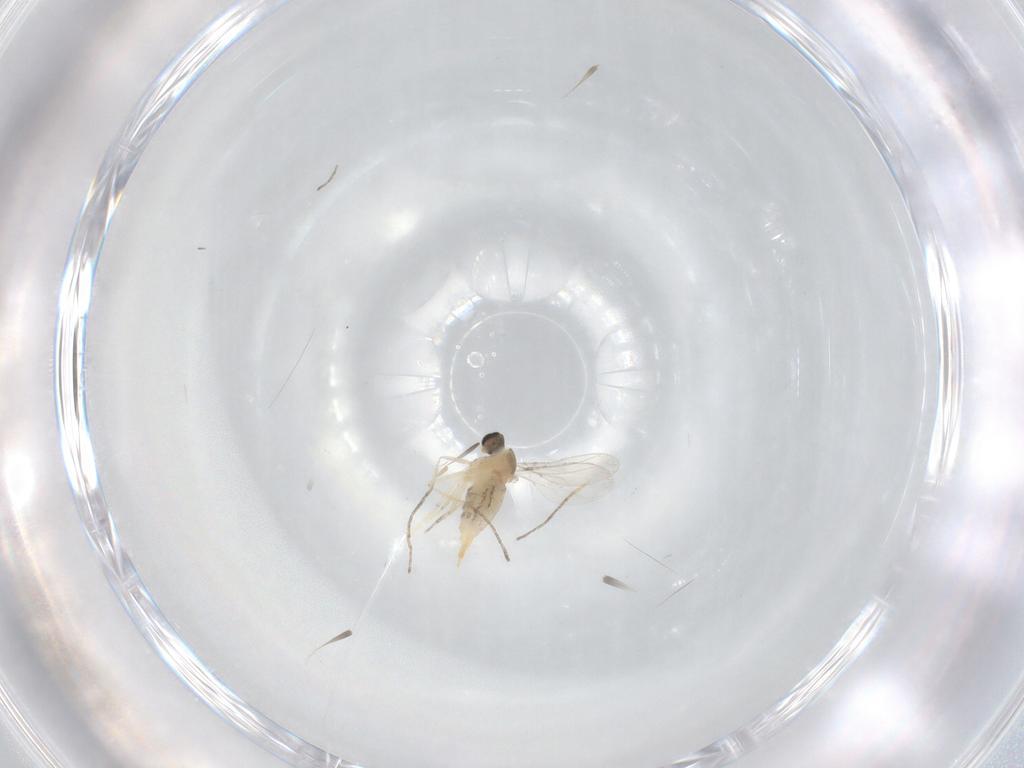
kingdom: Animalia
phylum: Arthropoda
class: Insecta
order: Diptera
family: Cecidomyiidae
